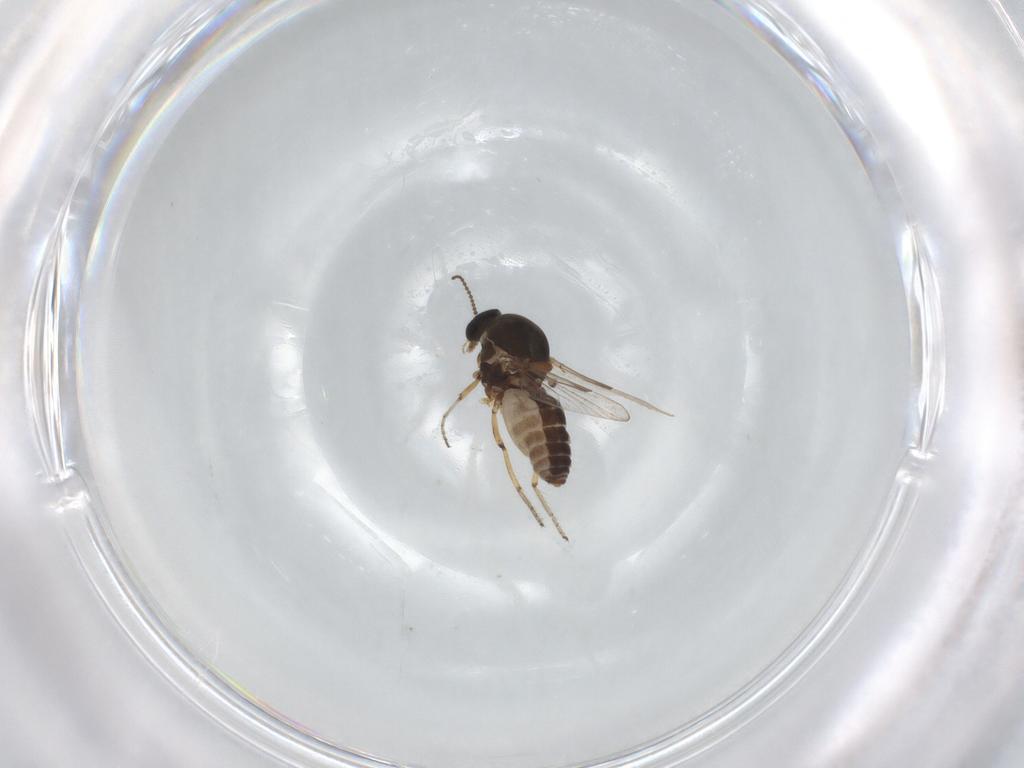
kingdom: Animalia
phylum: Arthropoda
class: Insecta
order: Diptera
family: Ceratopogonidae
